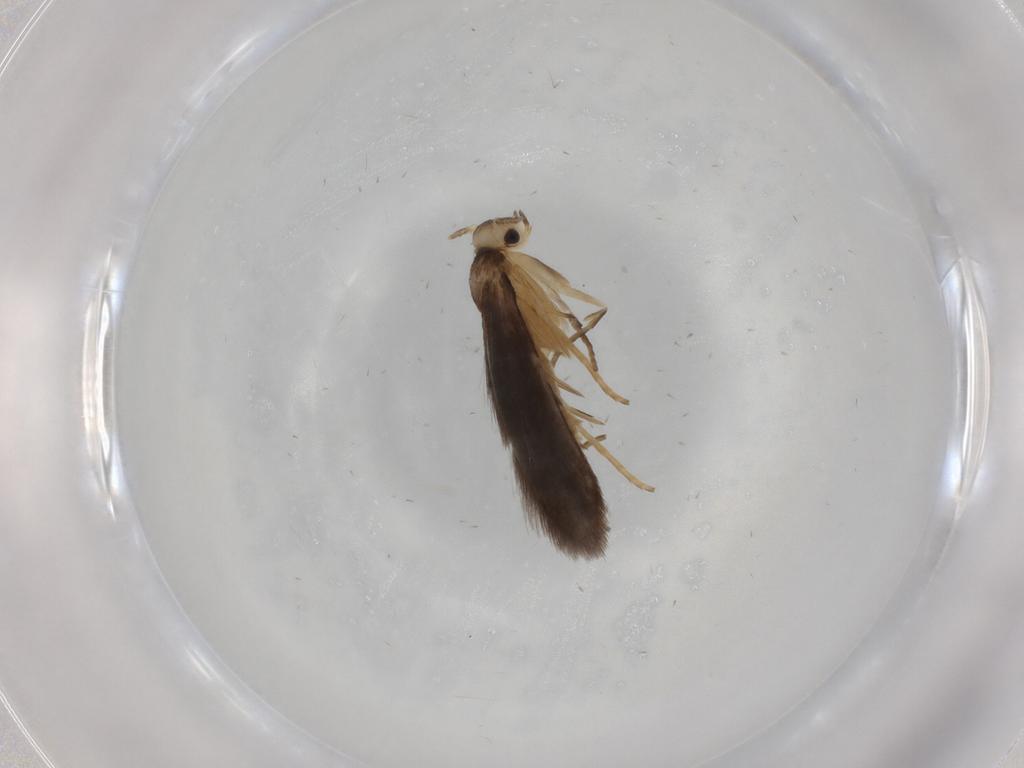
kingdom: Animalia
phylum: Arthropoda
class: Insecta
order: Lepidoptera
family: Schreckensteiniidae
